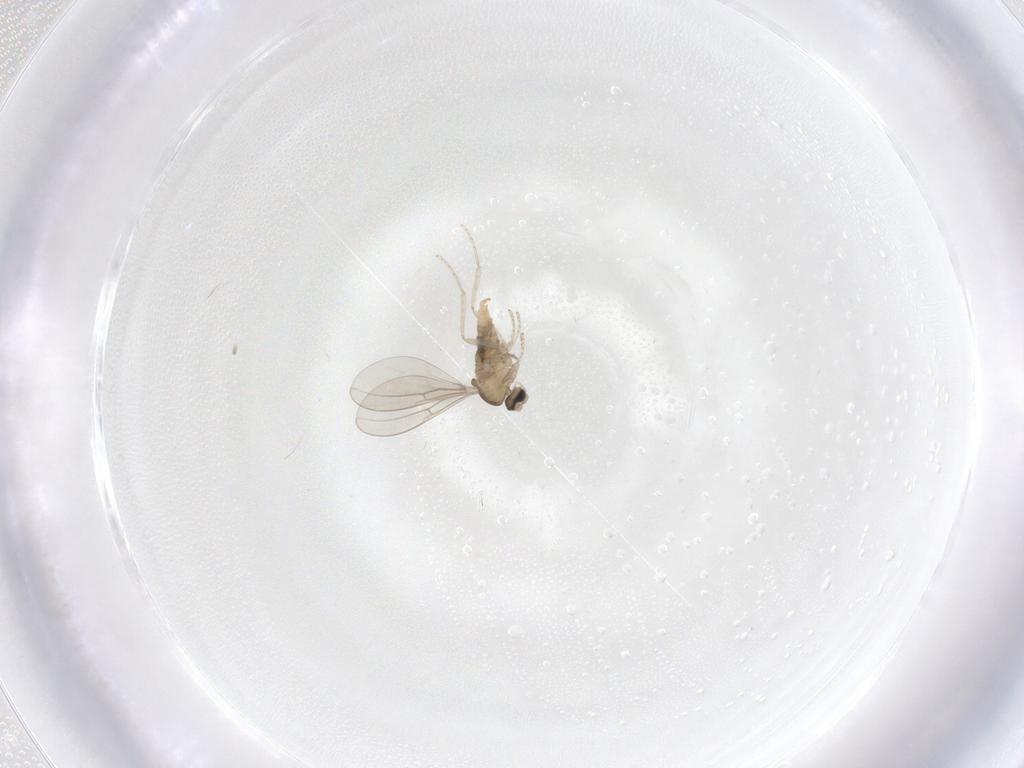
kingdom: Animalia
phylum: Arthropoda
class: Insecta
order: Diptera
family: Cecidomyiidae
